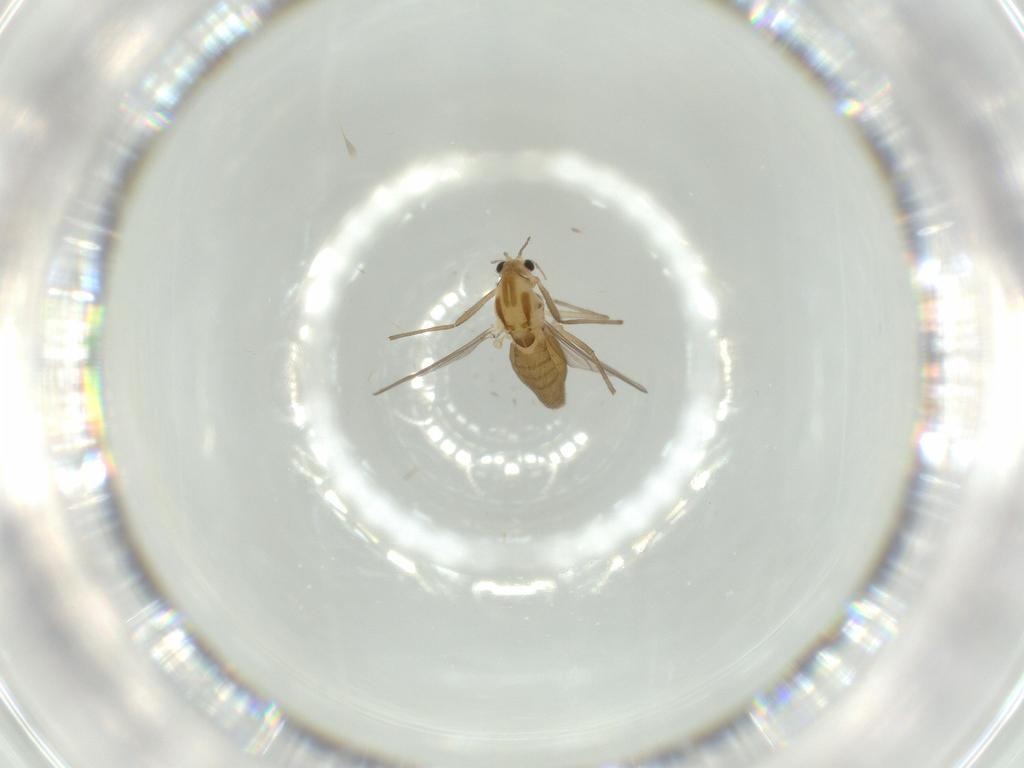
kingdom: Animalia
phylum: Arthropoda
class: Insecta
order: Diptera
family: Chironomidae
